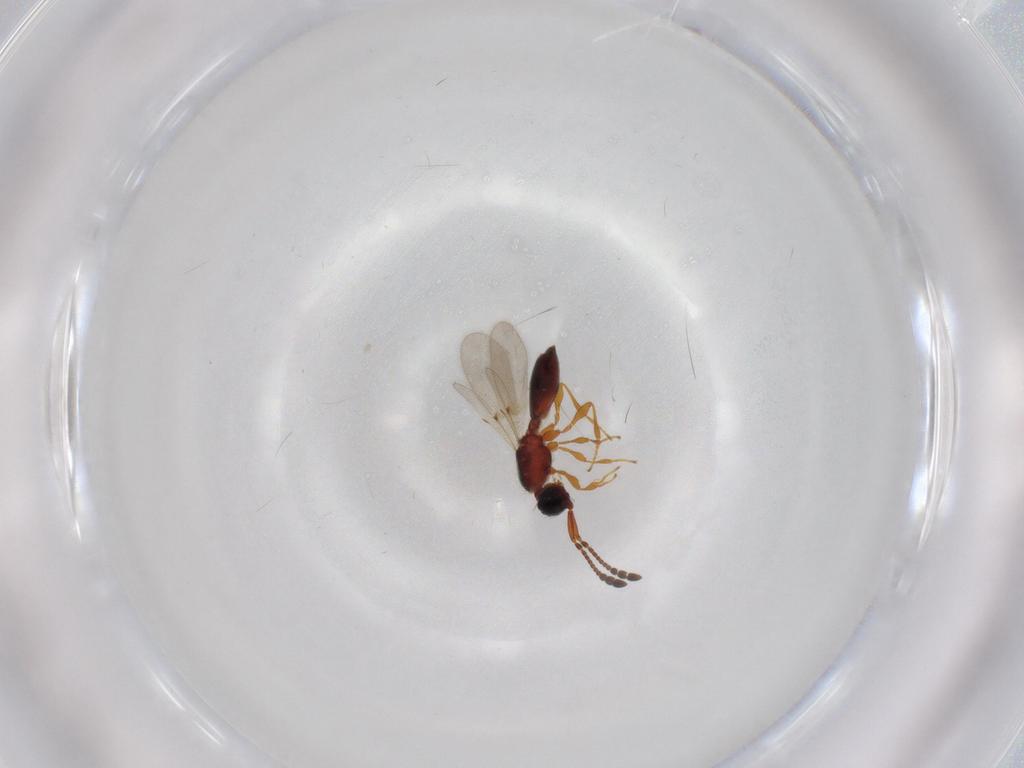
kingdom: Animalia
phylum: Arthropoda
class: Insecta
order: Hymenoptera
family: Diapriidae
